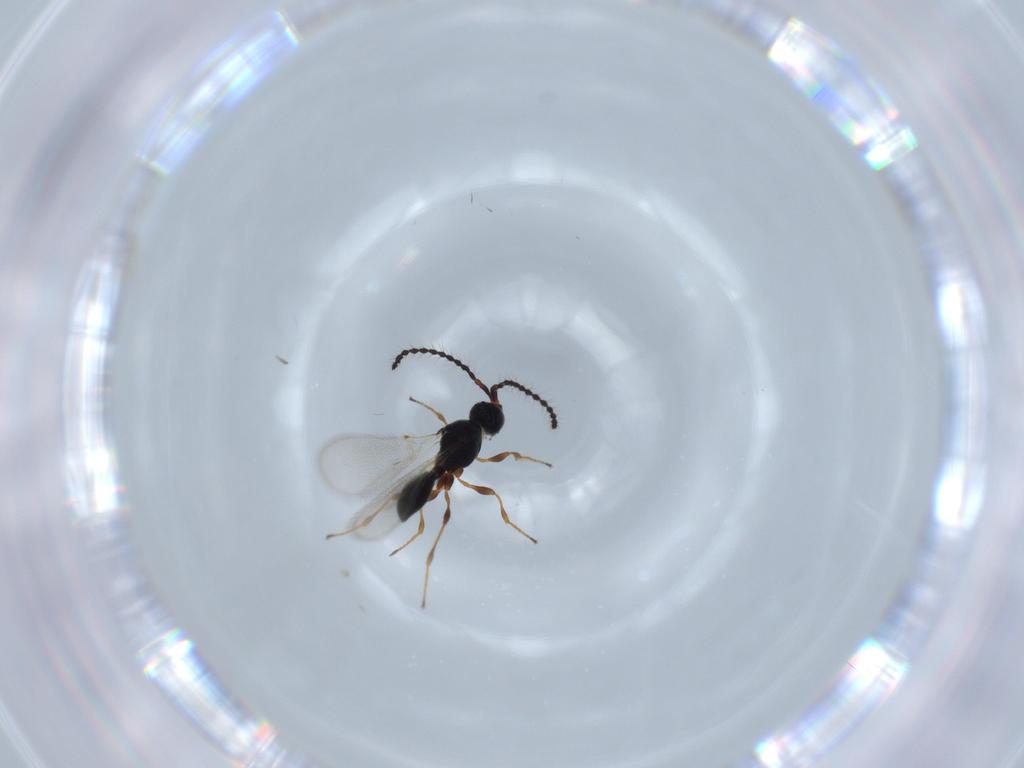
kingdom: Animalia
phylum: Arthropoda
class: Insecta
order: Hymenoptera
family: Diapriidae
